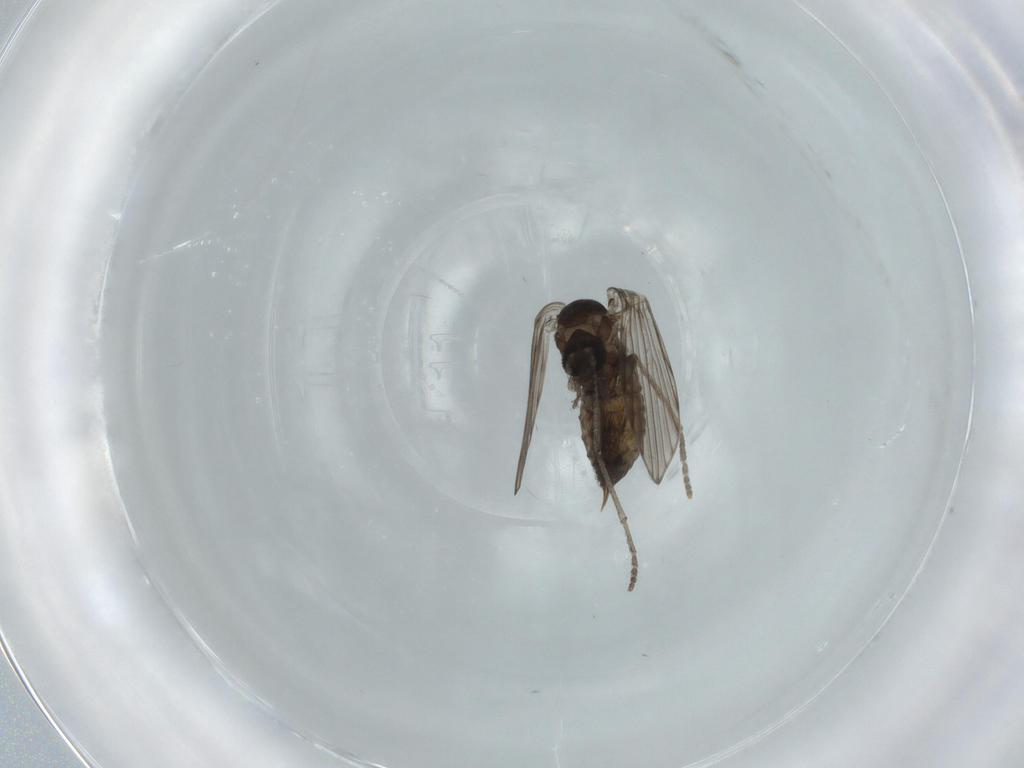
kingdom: Animalia
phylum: Arthropoda
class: Insecta
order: Diptera
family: Psychodidae
